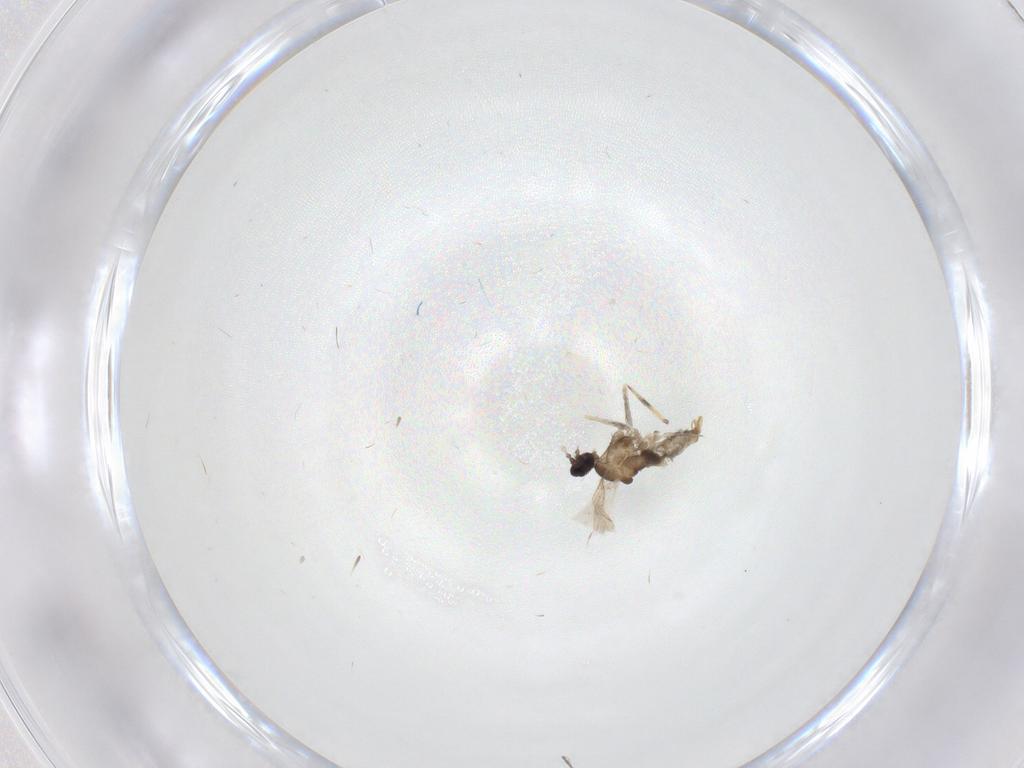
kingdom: Animalia
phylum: Arthropoda
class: Insecta
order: Diptera
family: Cecidomyiidae
